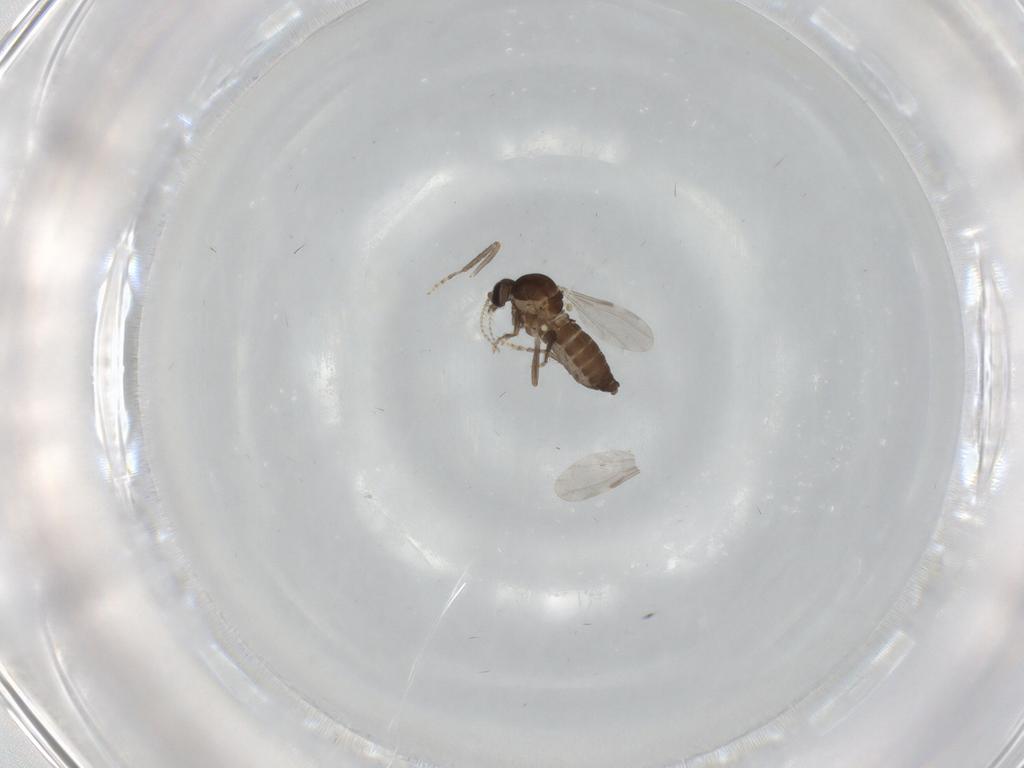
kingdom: Animalia
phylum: Arthropoda
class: Insecta
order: Diptera
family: Ceratopogonidae
